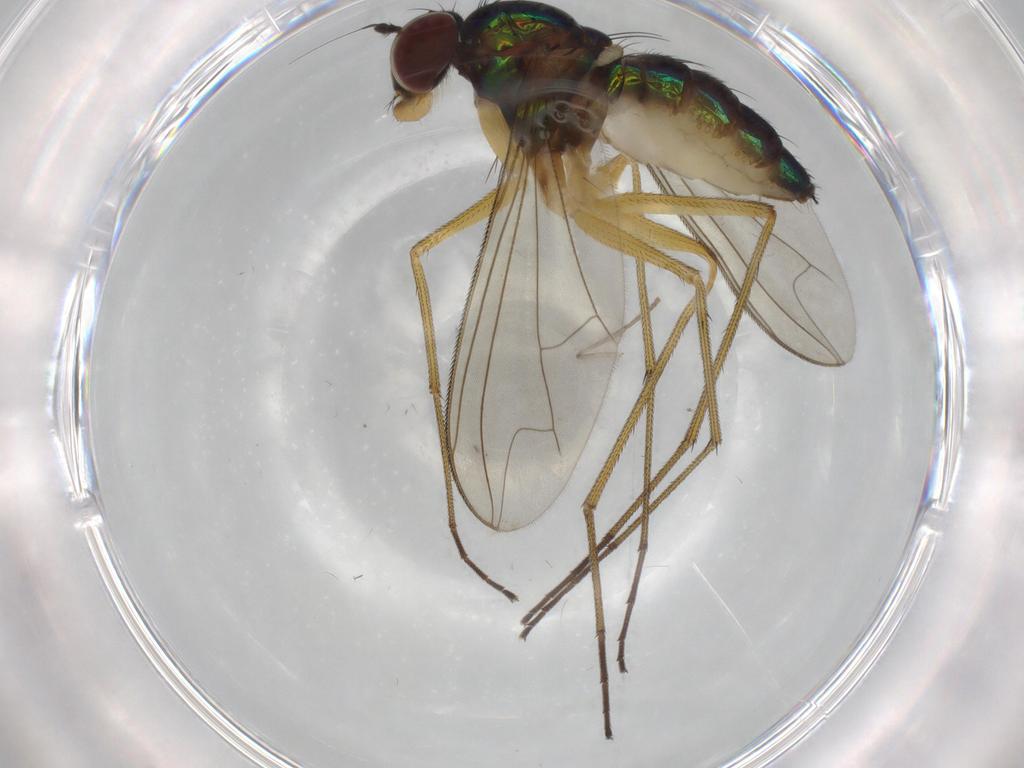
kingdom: Animalia
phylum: Arthropoda
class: Insecta
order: Diptera
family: Dolichopodidae
